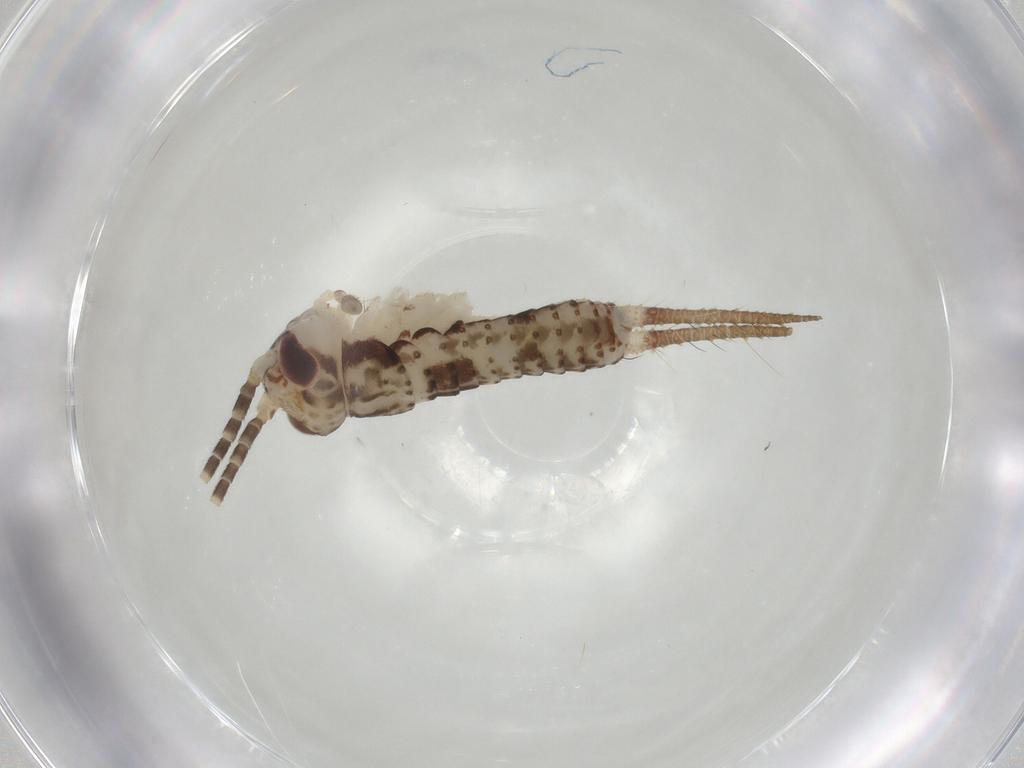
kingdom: Animalia
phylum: Arthropoda
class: Insecta
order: Orthoptera
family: Gryllidae
